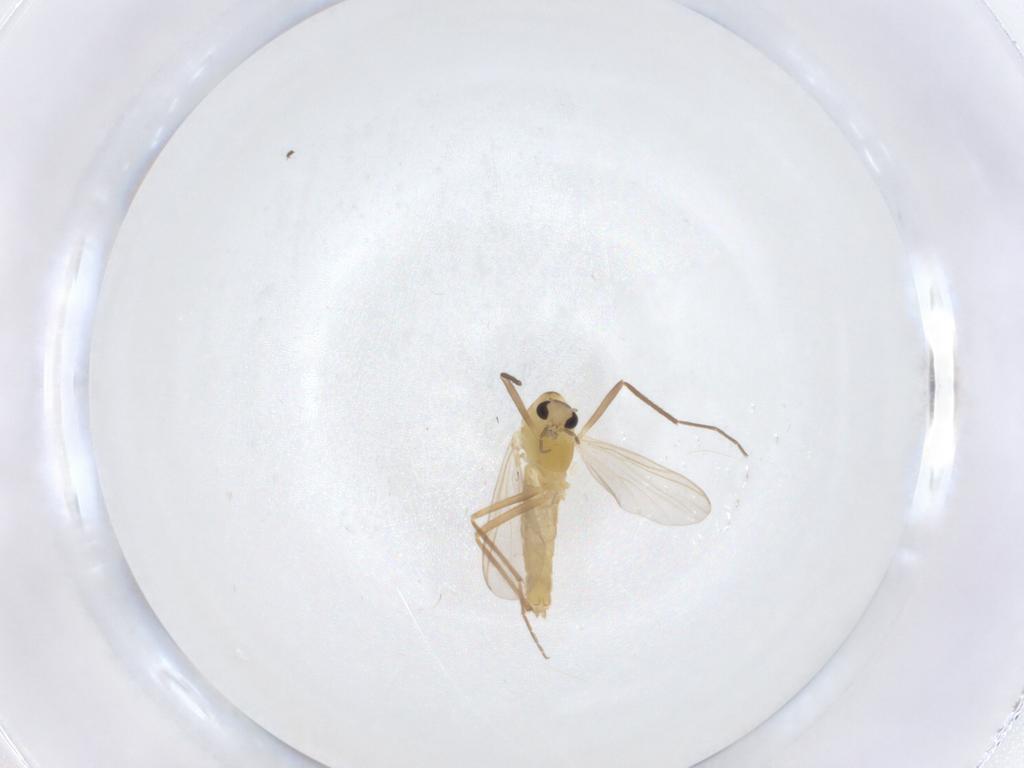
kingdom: Animalia
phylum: Arthropoda
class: Insecta
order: Diptera
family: Chironomidae
